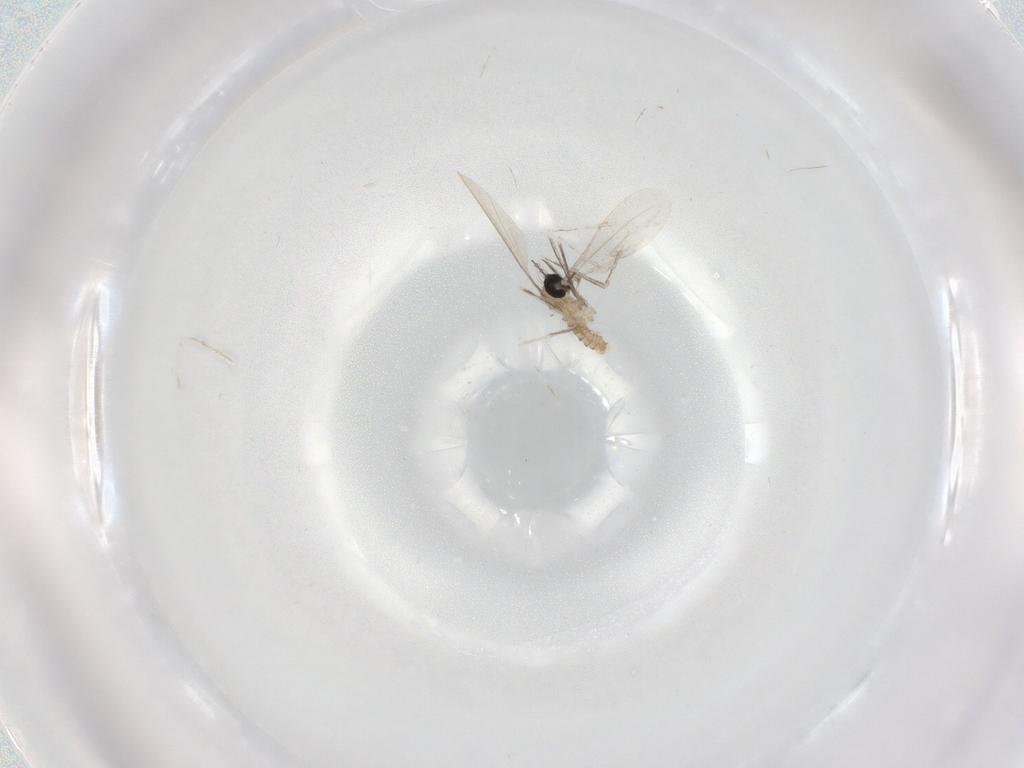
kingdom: Animalia
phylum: Arthropoda
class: Insecta
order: Diptera
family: Cecidomyiidae
